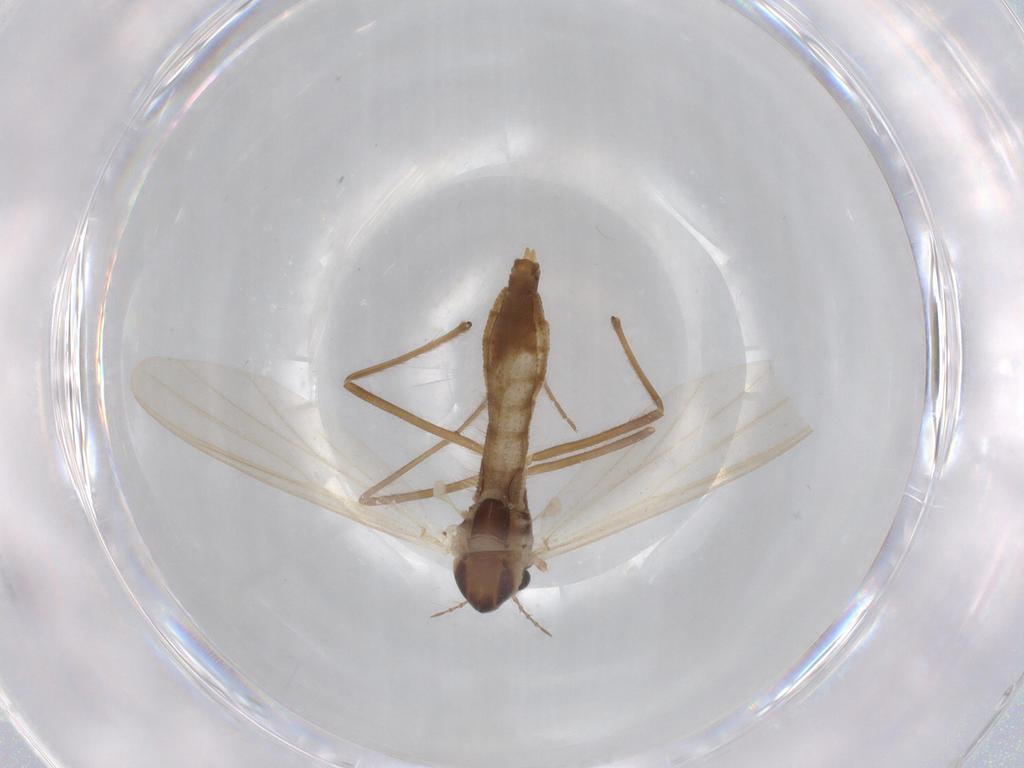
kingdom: Animalia
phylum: Arthropoda
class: Insecta
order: Diptera
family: Chironomidae
